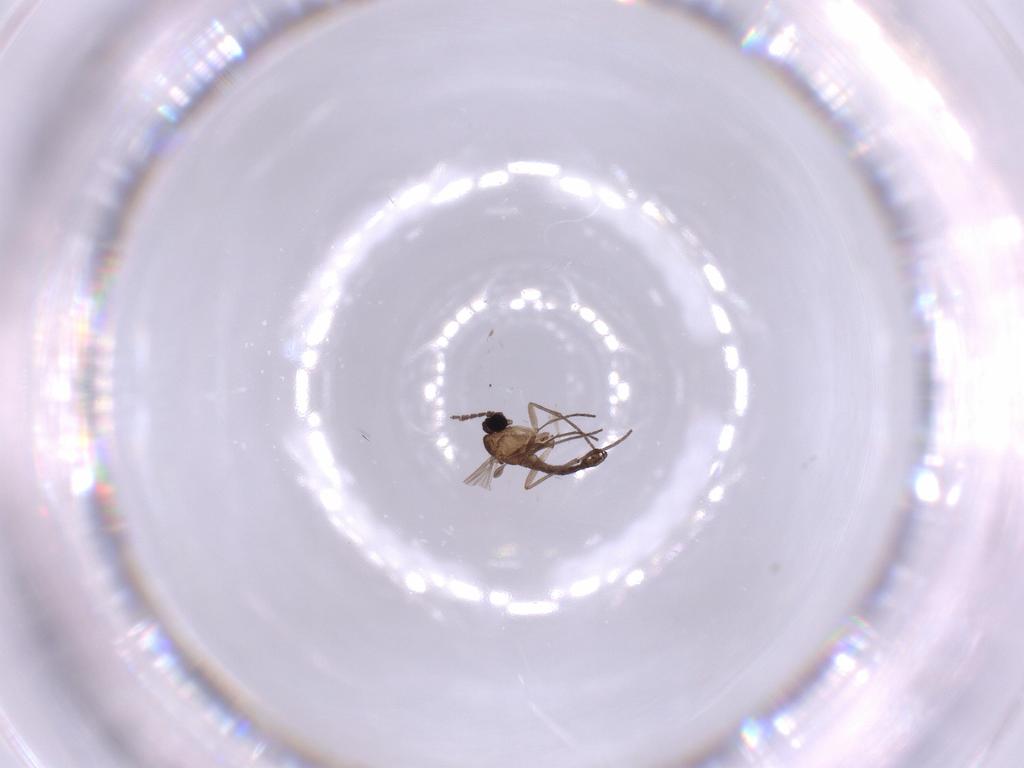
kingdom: Animalia
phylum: Arthropoda
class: Insecta
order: Diptera
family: Sciaridae
